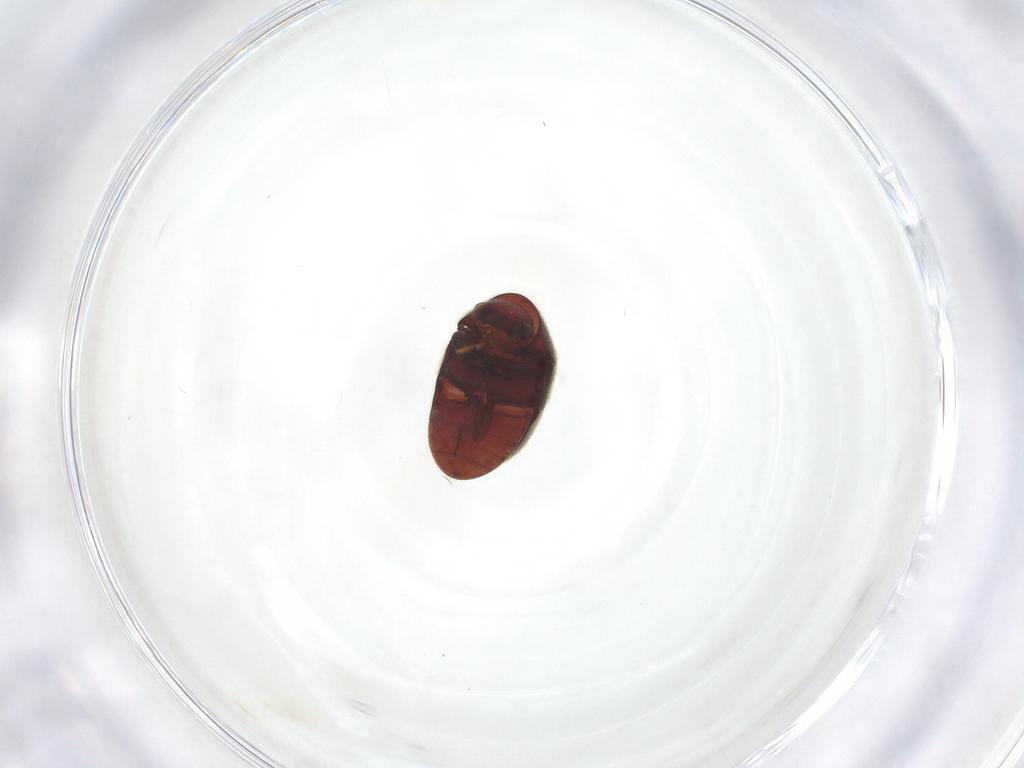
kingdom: Animalia
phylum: Arthropoda
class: Insecta
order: Coleoptera
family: Ptinidae
